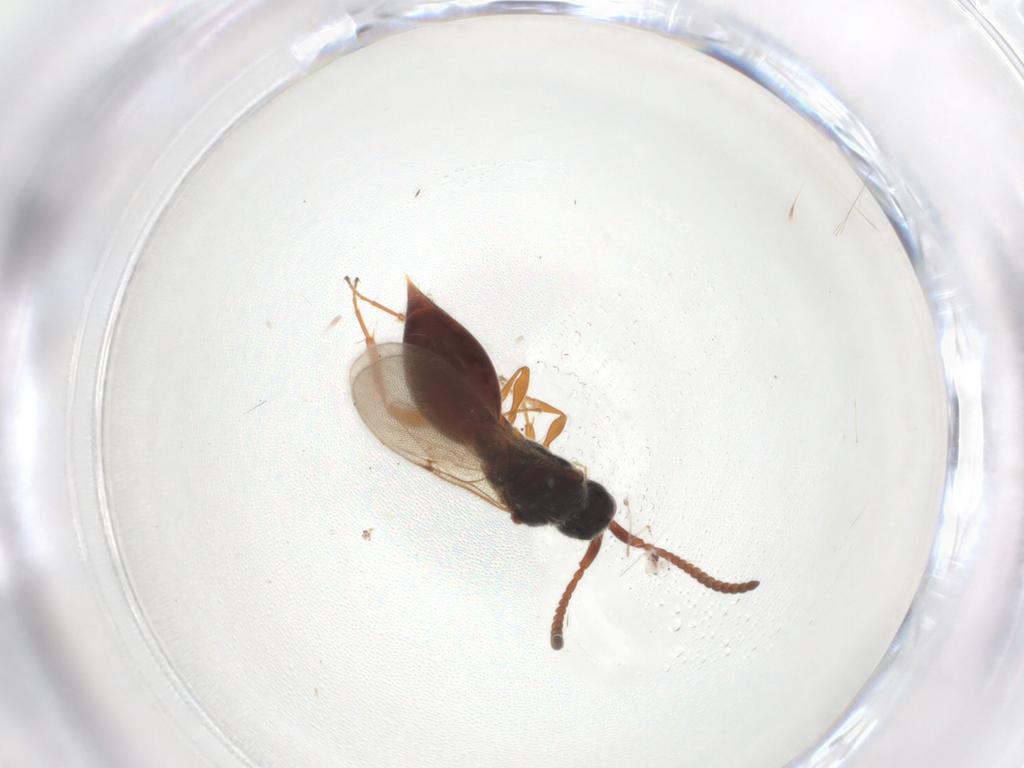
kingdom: Animalia
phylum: Arthropoda
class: Insecta
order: Hymenoptera
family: Diapriidae
